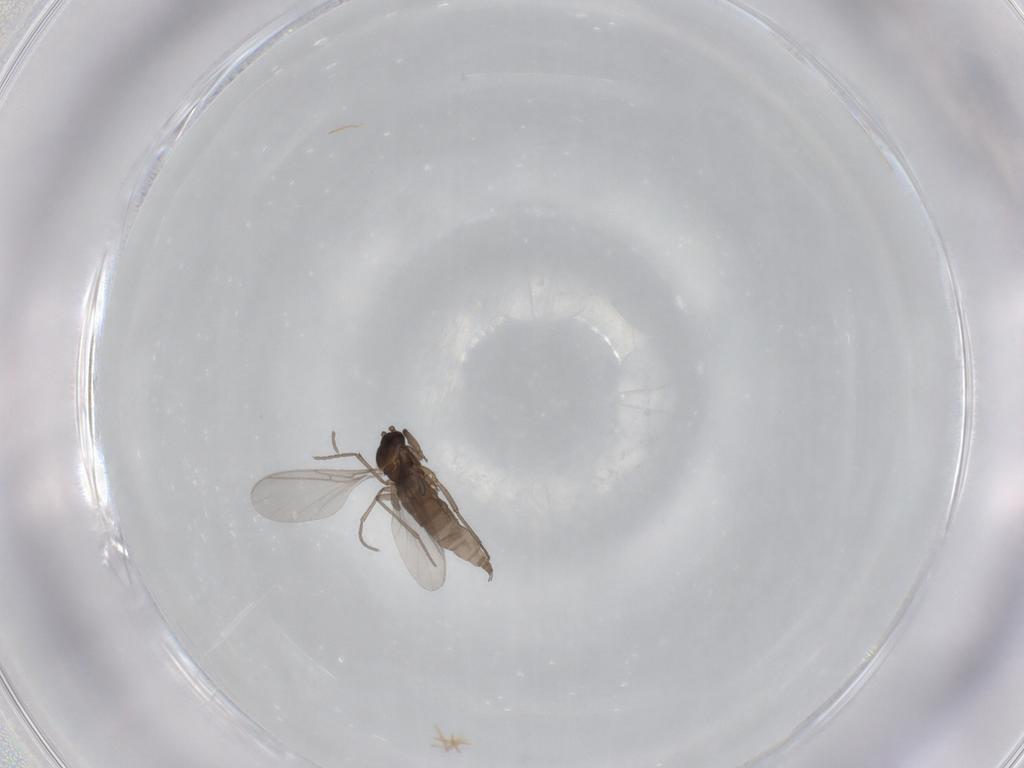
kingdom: Animalia
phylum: Arthropoda
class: Insecta
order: Diptera
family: Sciaridae
